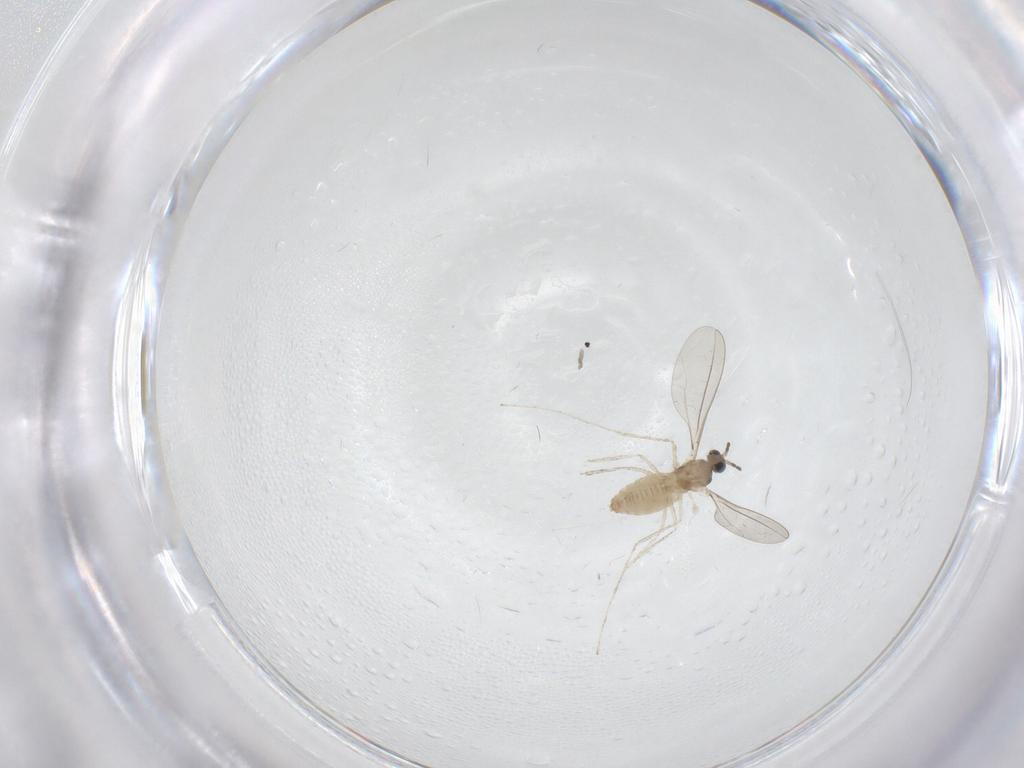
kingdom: Animalia
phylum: Arthropoda
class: Insecta
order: Diptera
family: Cecidomyiidae
